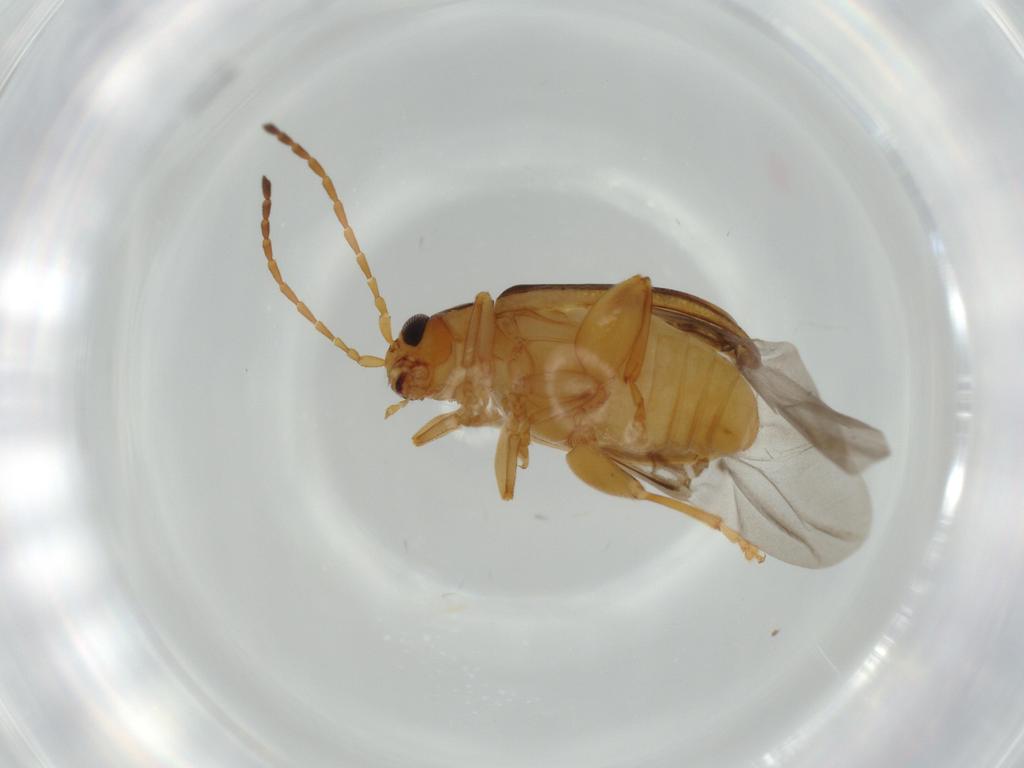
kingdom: Animalia
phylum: Arthropoda
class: Insecta
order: Coleoptera
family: Chrysomelidae
